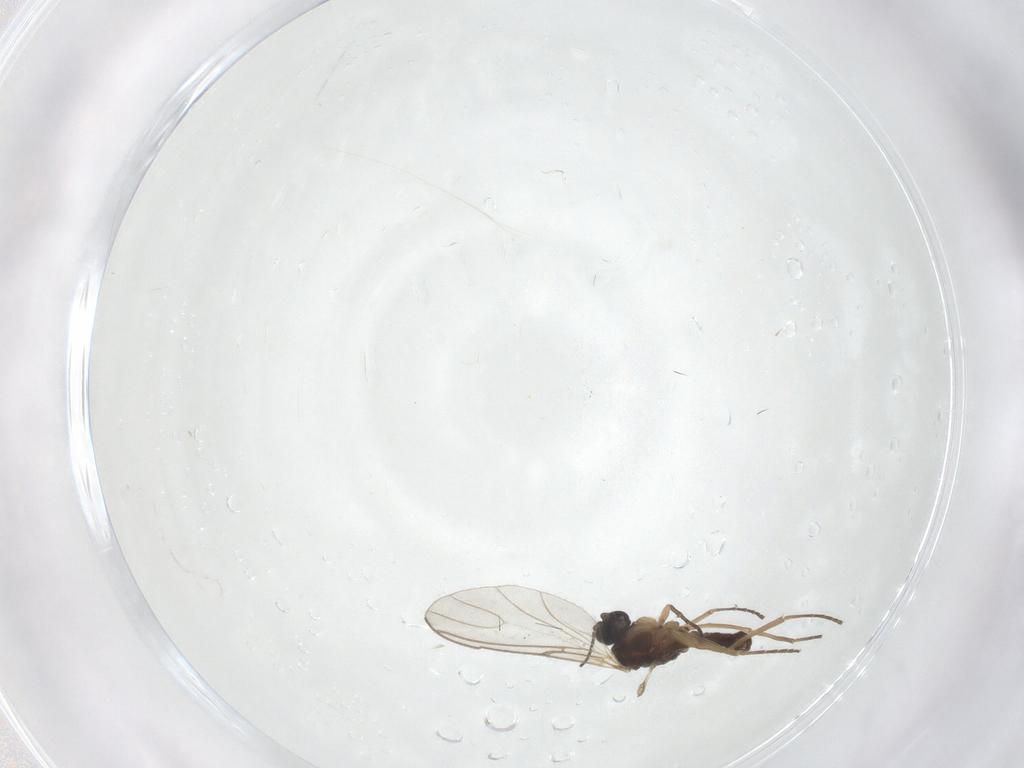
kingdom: Animalia
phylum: Arthropoda
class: Insecta
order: Diptera
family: Sciaridae
